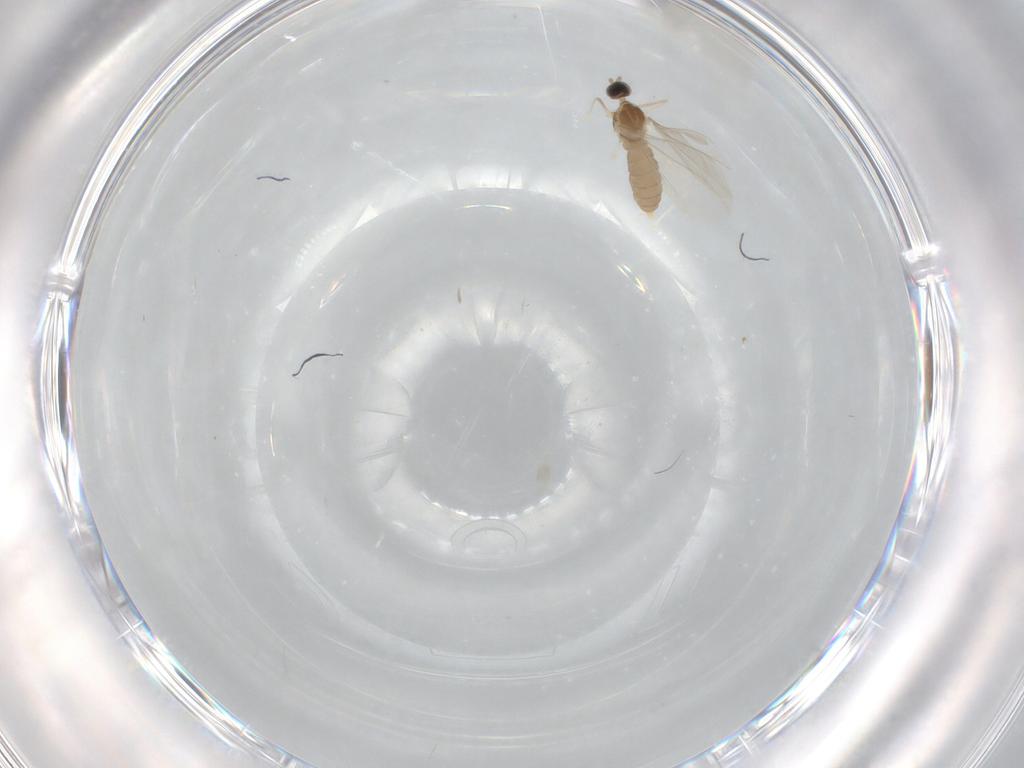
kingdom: Animalia
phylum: Arthropoda
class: Insecta
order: Diptera
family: Cecidomyiidae
